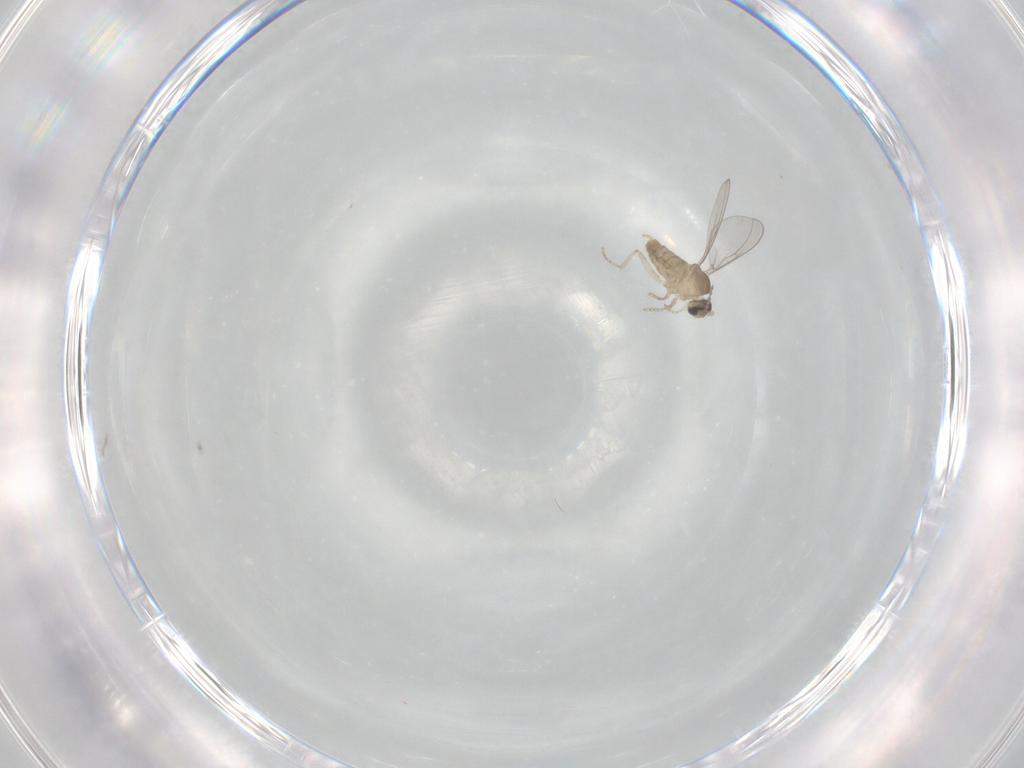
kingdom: Animalia
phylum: Arthropoda
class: Insecta
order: Diptera
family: Cecidomyiidae
